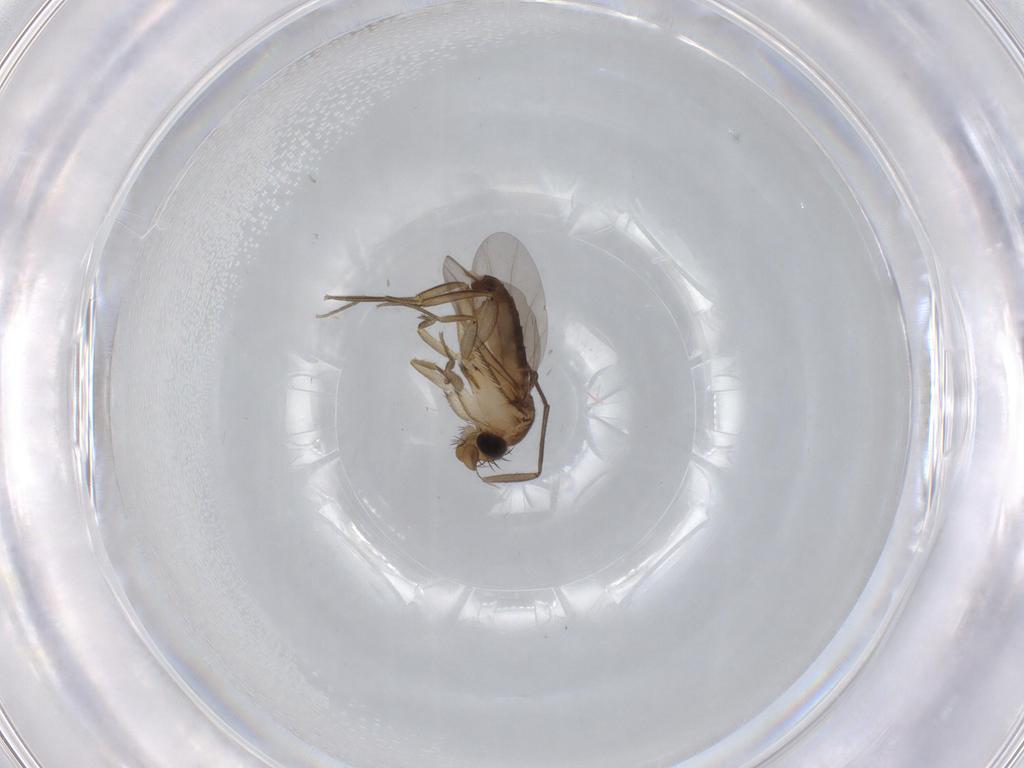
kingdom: Animalia
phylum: Arthropoda
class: Insecta
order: Diptera
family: Sciaridae
